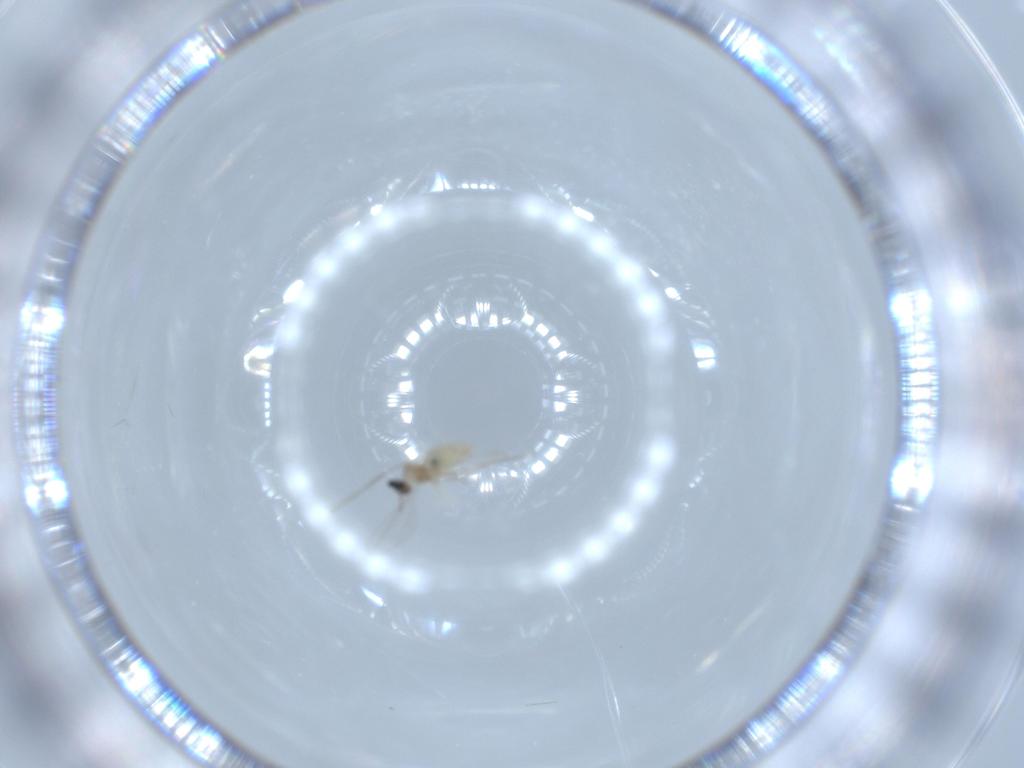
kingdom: Animalia
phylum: Arthropoda
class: Insecta
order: Diptera
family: Cecidomyiidae
